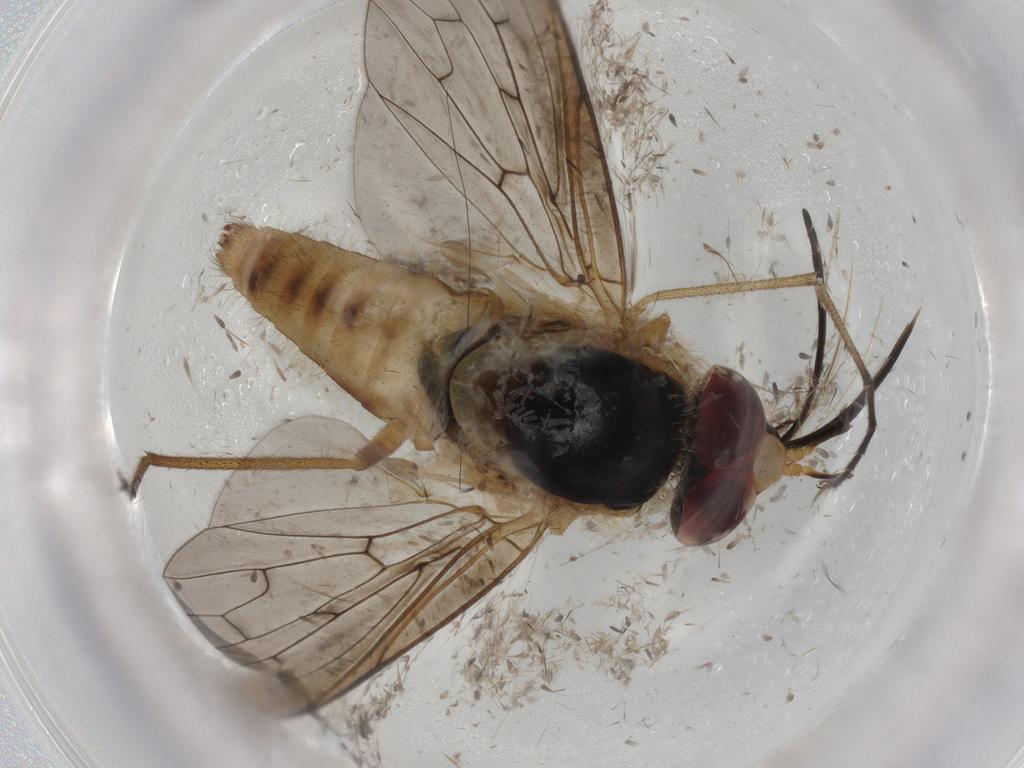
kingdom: Animalia
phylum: Arthropoda
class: Insecta
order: Diptera
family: Bombyliidae
